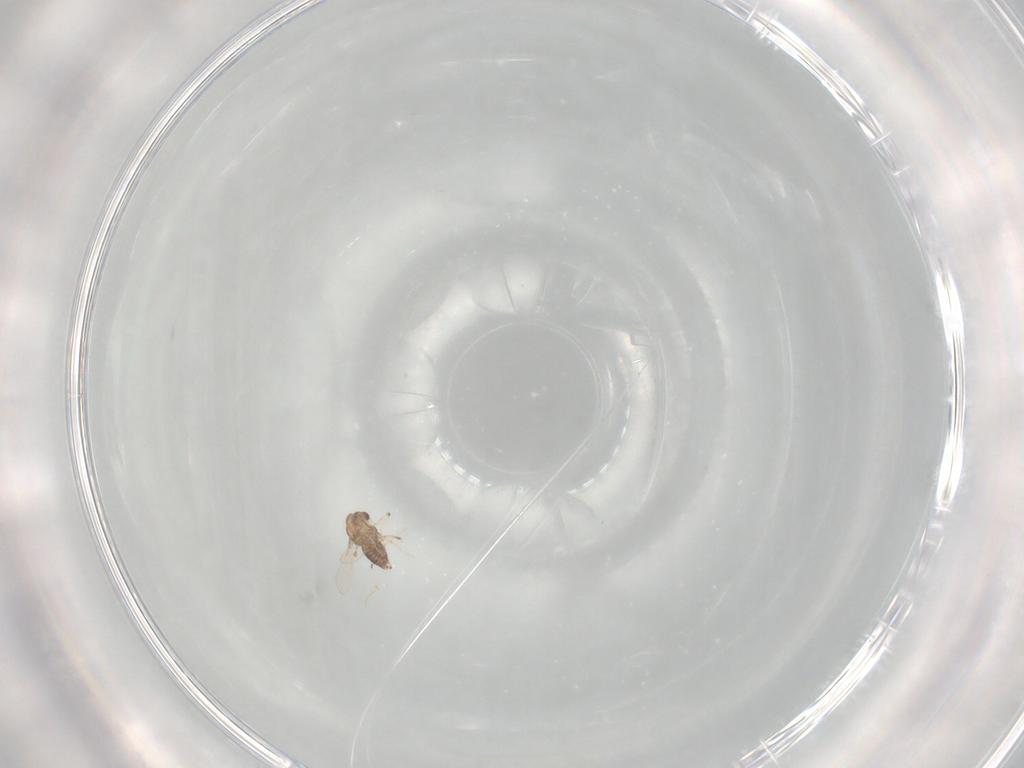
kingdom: Animalia
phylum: Arthropoda
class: Insecta
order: Diptera
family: Chironomidae
